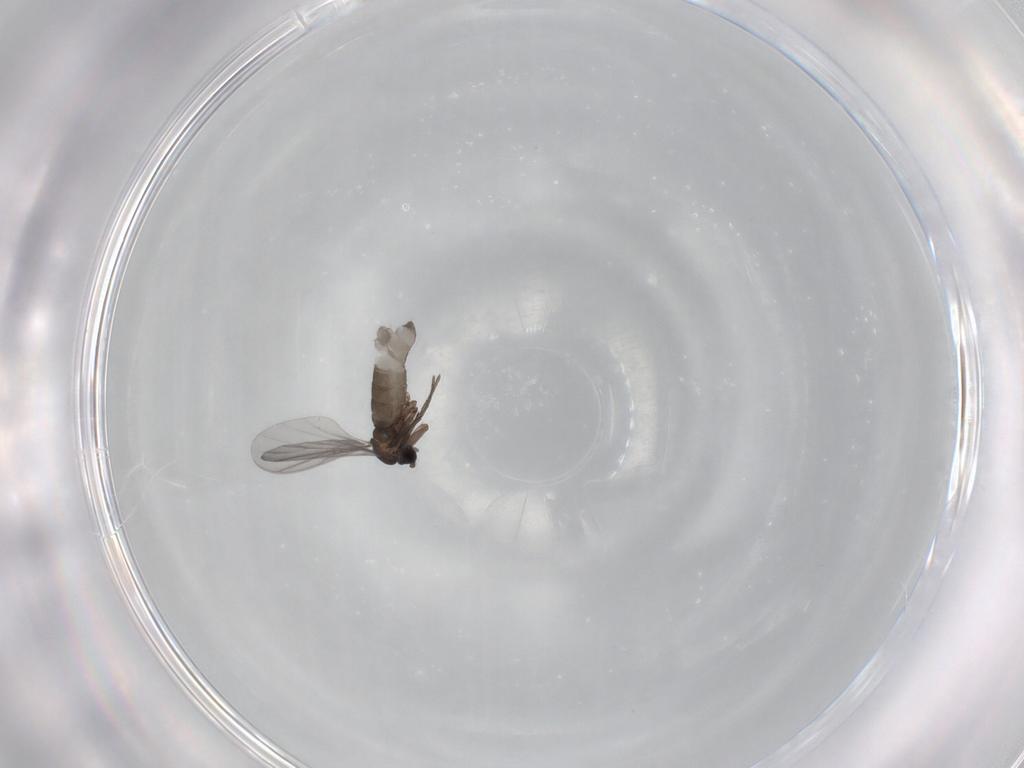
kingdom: Animalia
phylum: Arthropoda
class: Insecta
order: Diptera
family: Sciaridae
